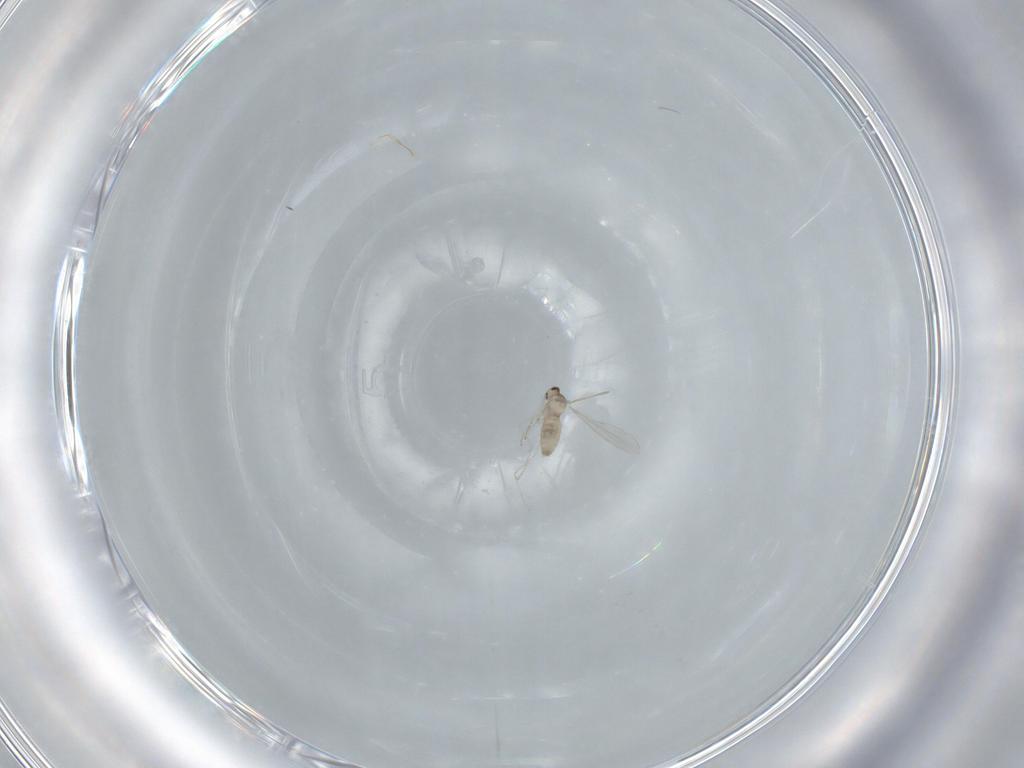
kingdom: Animalia
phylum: Arthropoda
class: Insecta
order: Diptera
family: Cecidomyiidae
